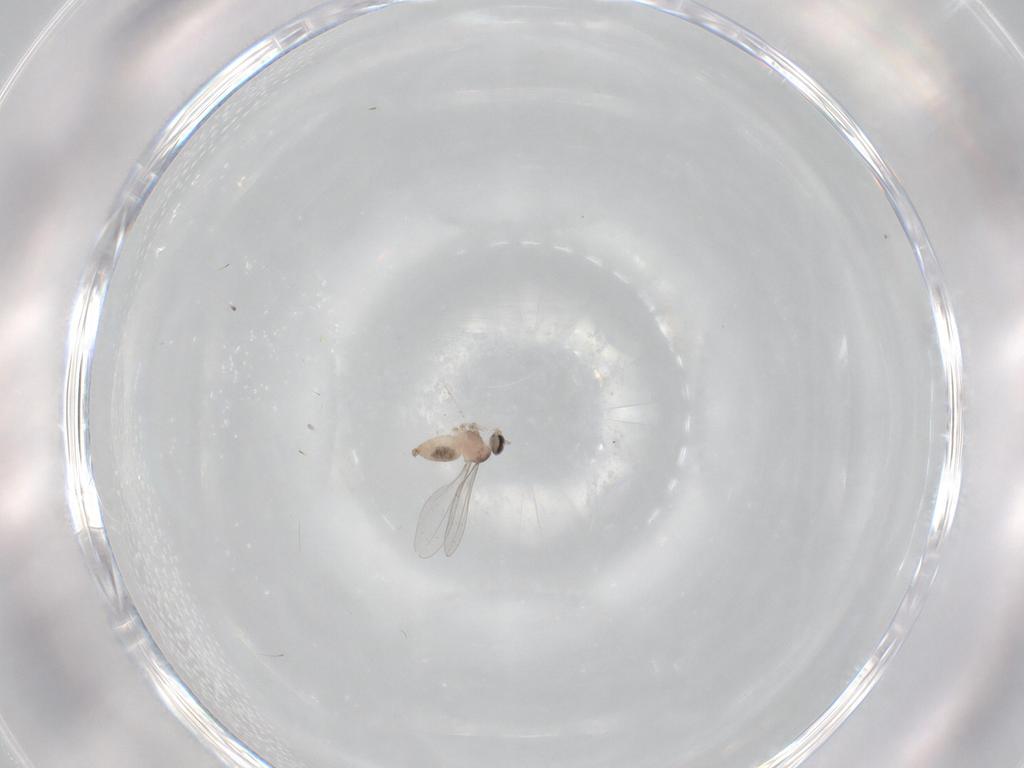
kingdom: Animalia
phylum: Arthropoda
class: Insecta
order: Diptera
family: Cecidomyiidae
